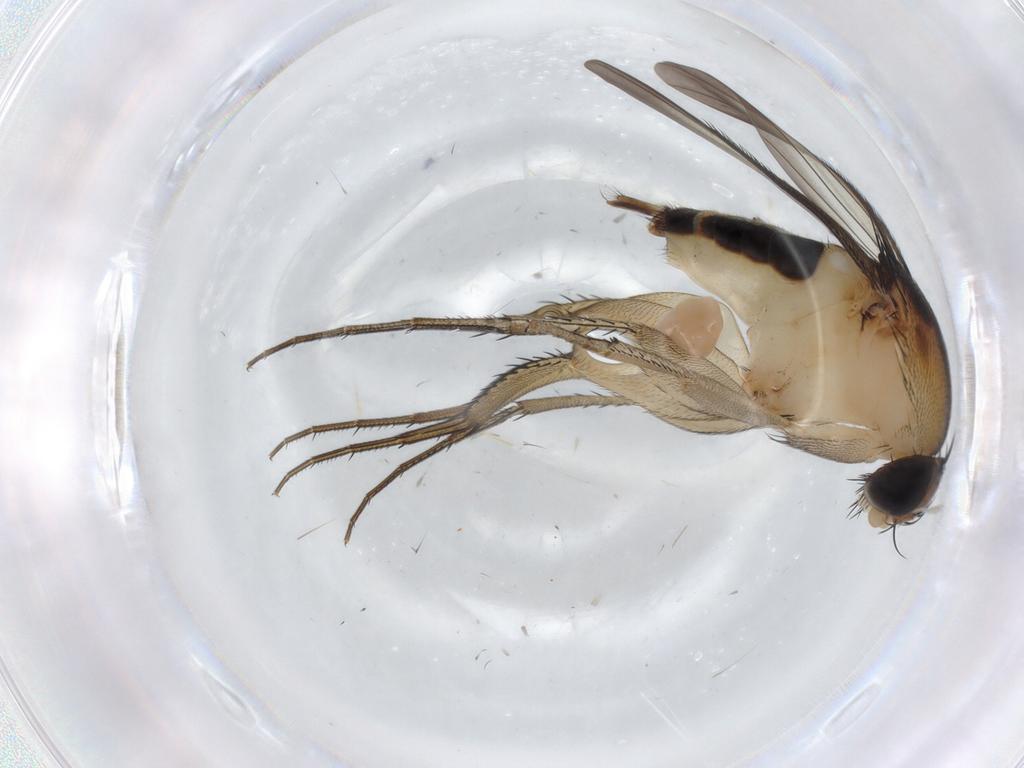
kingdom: Animalia
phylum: Arthropoda
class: Insecta
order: Diptera
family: Phoridae
